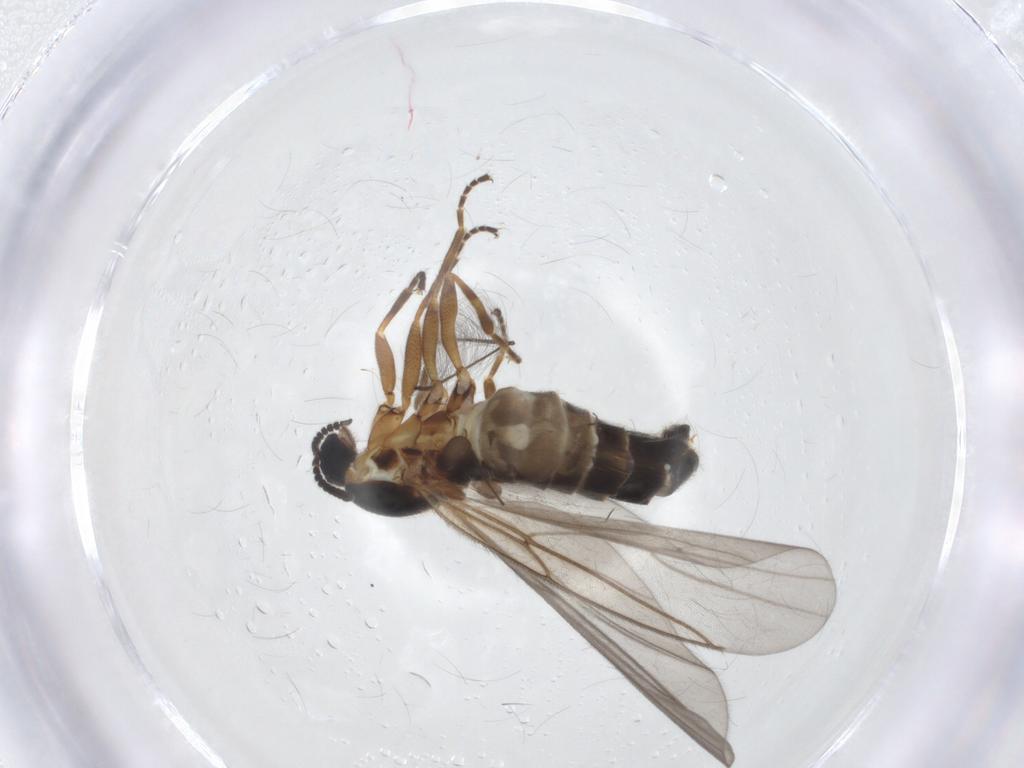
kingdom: Animalia
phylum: Arthropoda
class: Insecta
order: Diptera
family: Scatopsidae
